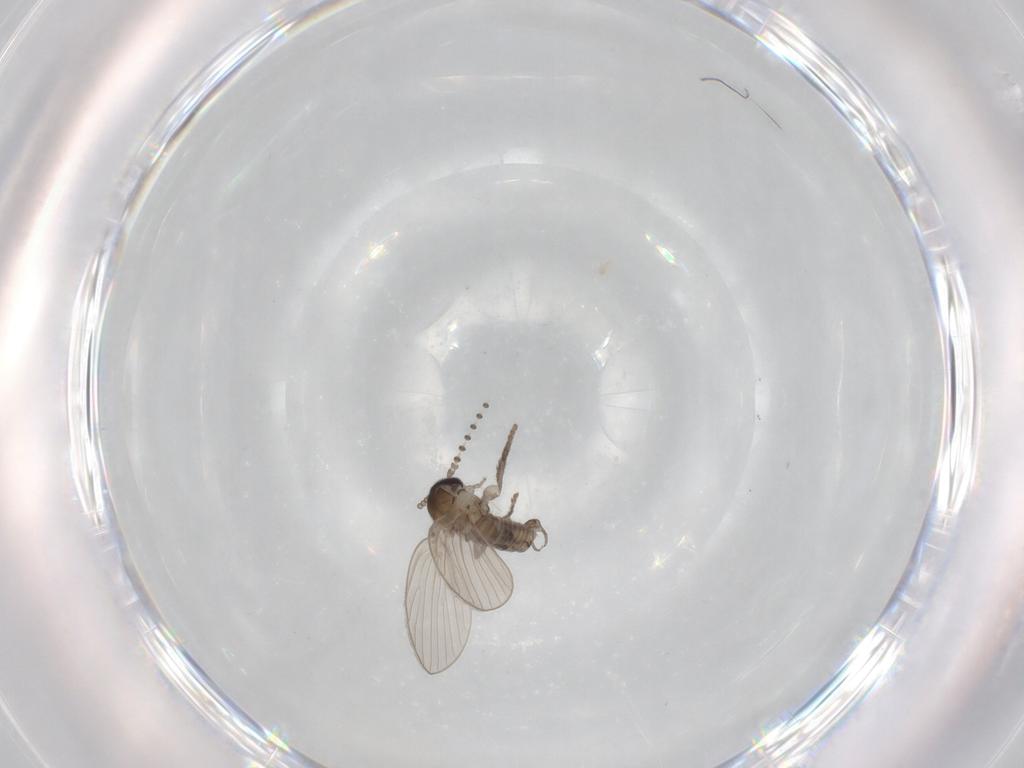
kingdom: Animalia
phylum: Arthropoda
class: Insecta
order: Diptera
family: Psychodidae
